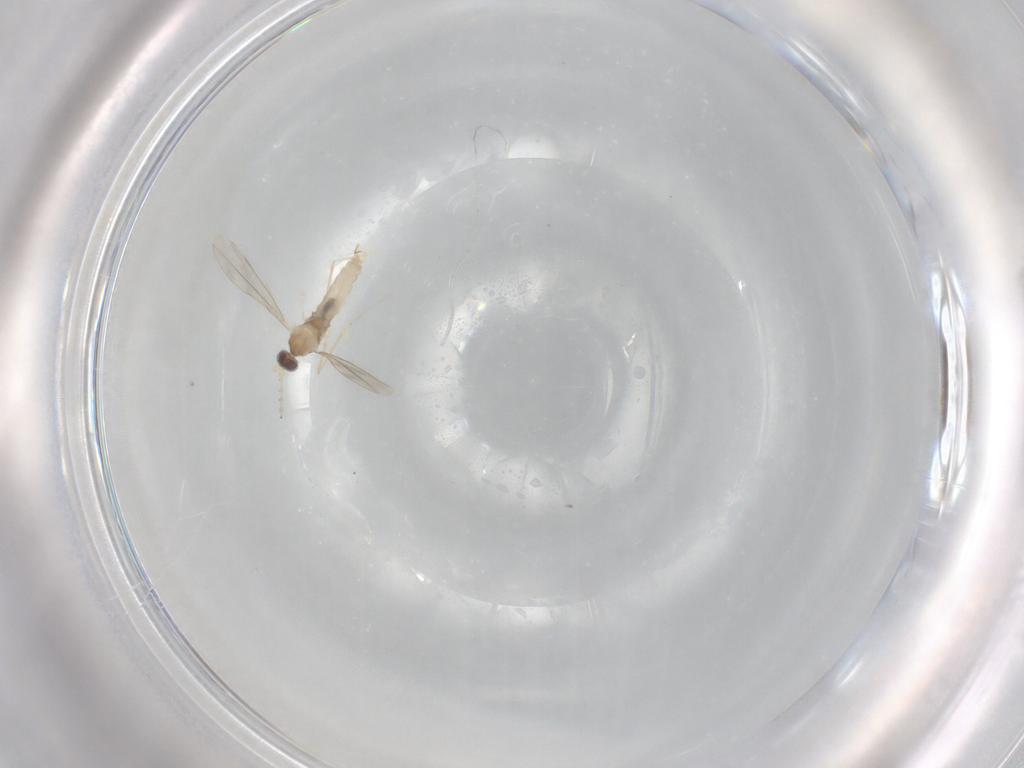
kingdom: Animalia
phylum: Arthropoda
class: Insecta
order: Diptera
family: Cecidomyiidae
